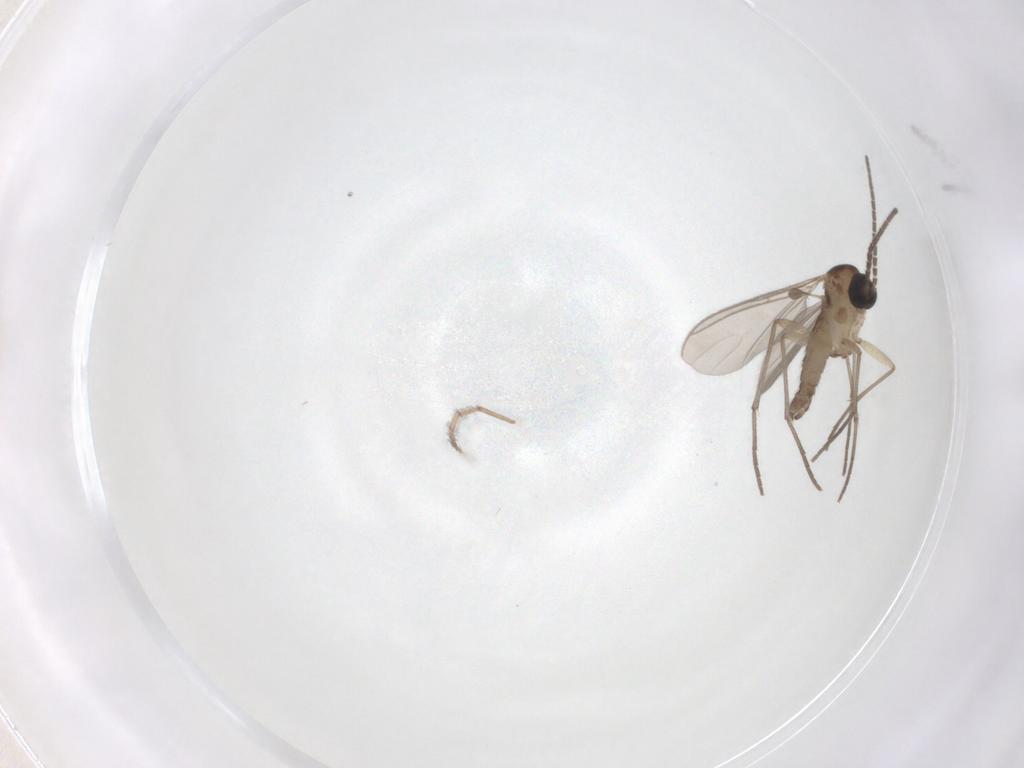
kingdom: Animalia
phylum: Arthropoda
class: Insecta
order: Diptera
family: Sciaridae
